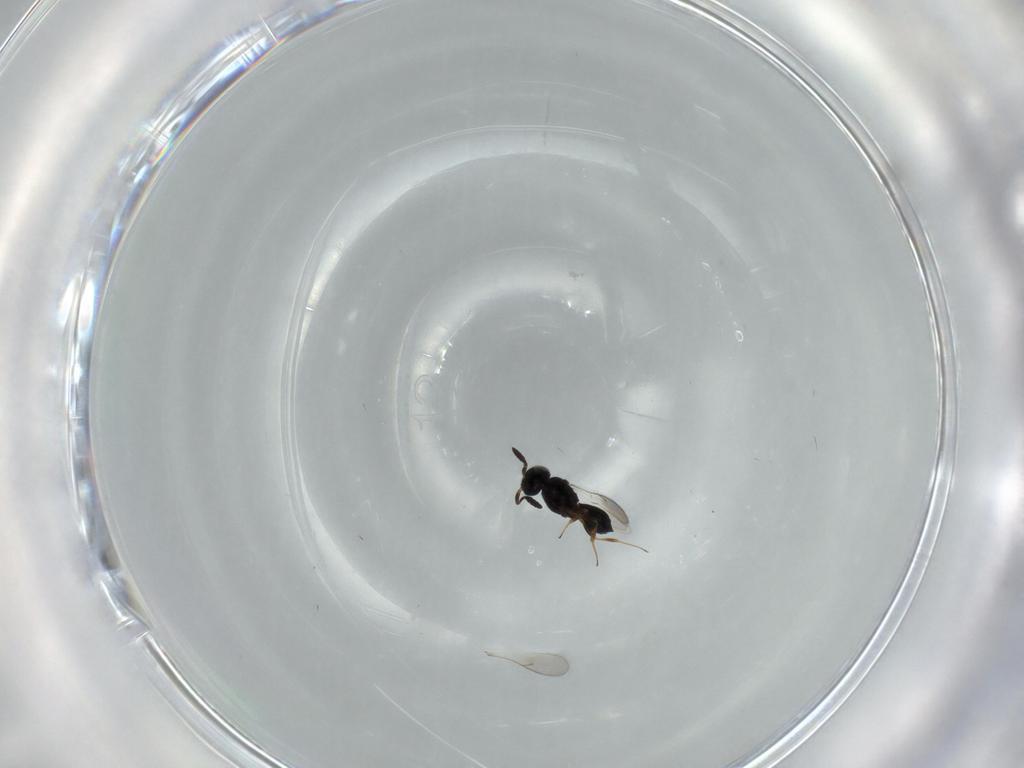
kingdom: Animalia
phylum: Arthropoda
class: Insecta
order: Hymenoptera
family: Scelionidae
